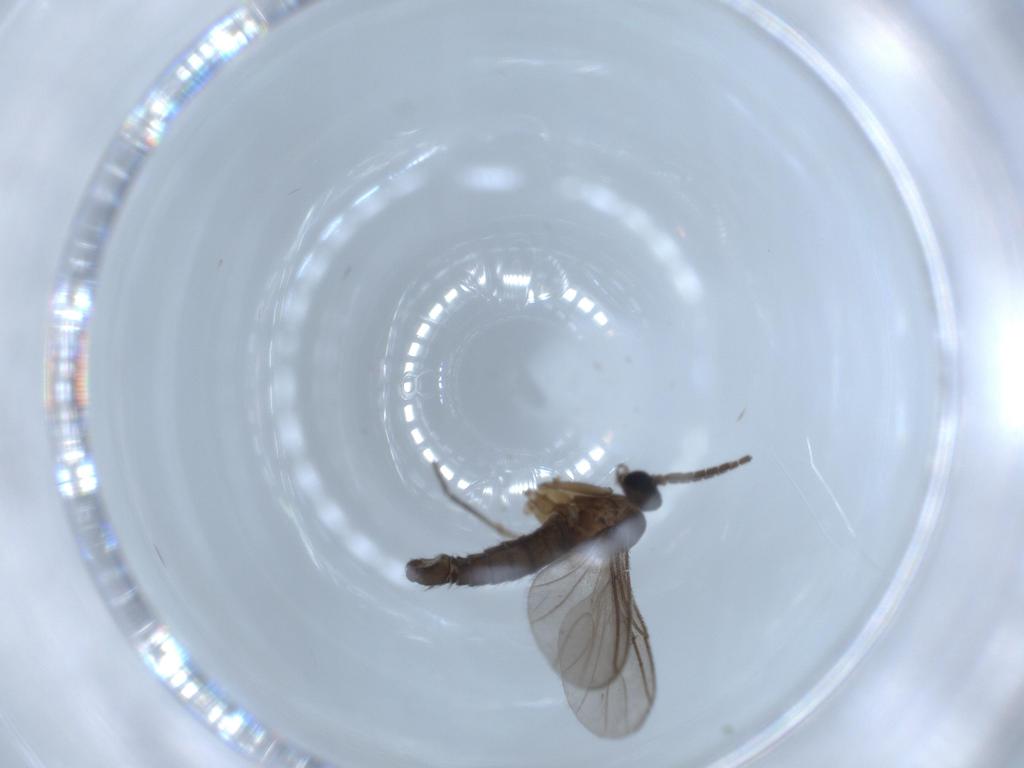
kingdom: Animalia
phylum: Arthropoda
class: Insecta
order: Diptera
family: Sciaridae
